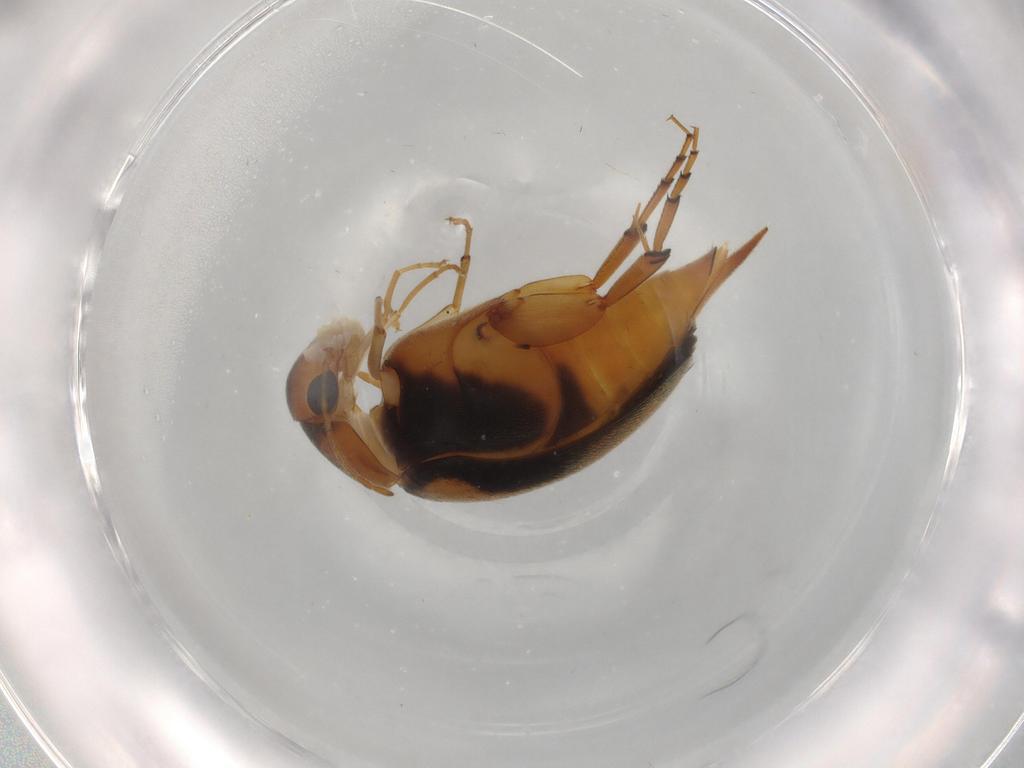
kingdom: Animalia
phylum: Arthropoda
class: Insecta
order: Coleoptera
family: Mordellidae
